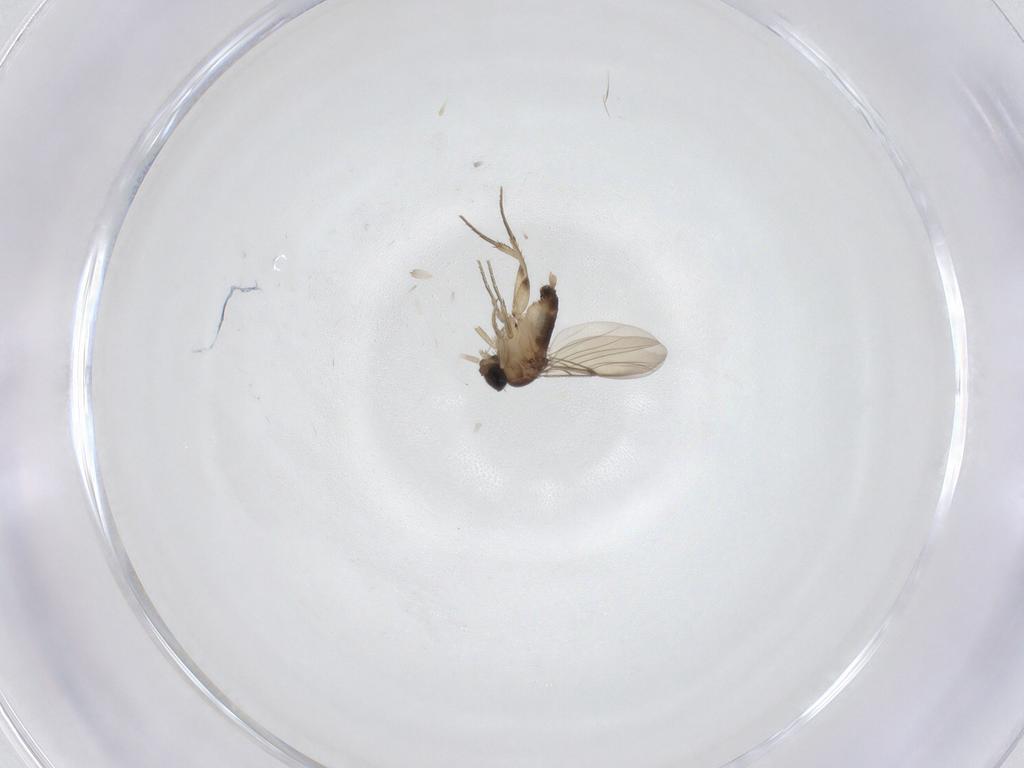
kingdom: Animalia
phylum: Arthropoda
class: Insecta
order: Diptera
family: Phoridae
